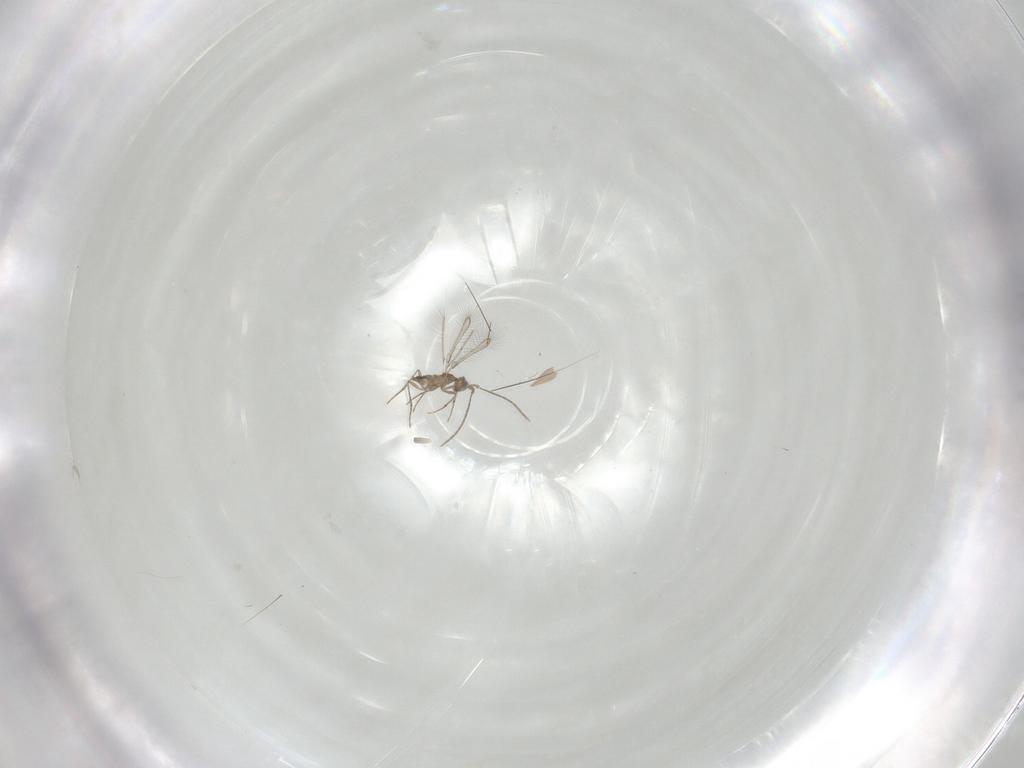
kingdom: Animalia
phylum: Arthropoda
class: Insecta
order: Hymenoptera
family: Mymaridae
